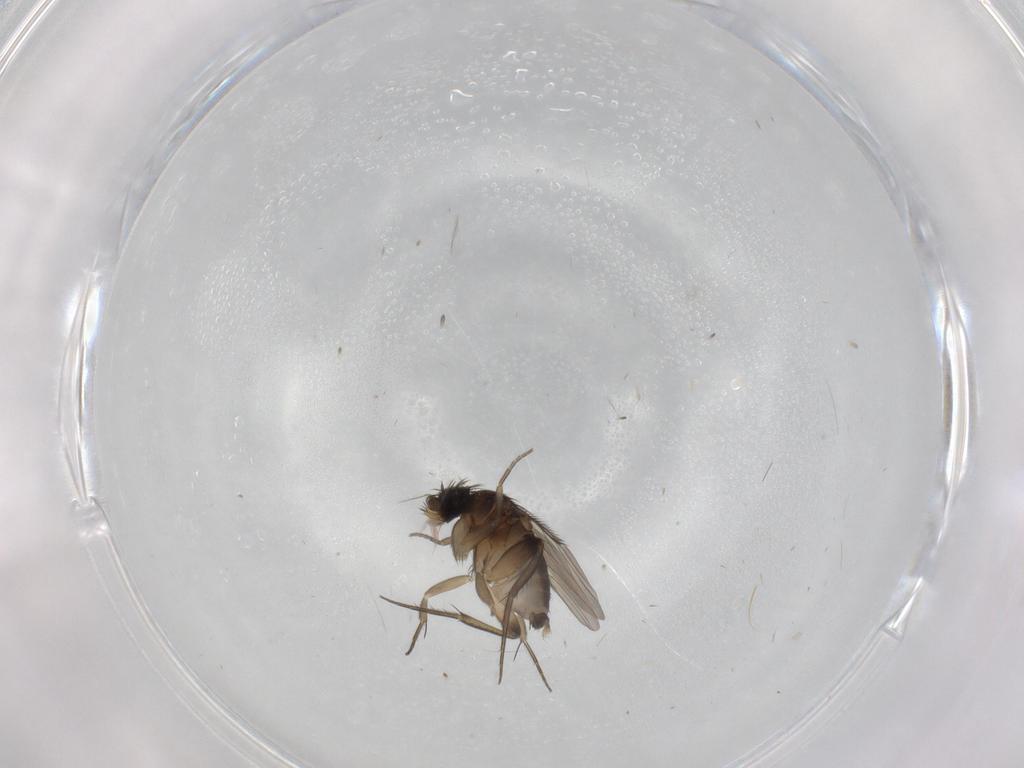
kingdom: Animalia
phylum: Arthropoda
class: Insecta
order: Diptera
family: Phoridae
